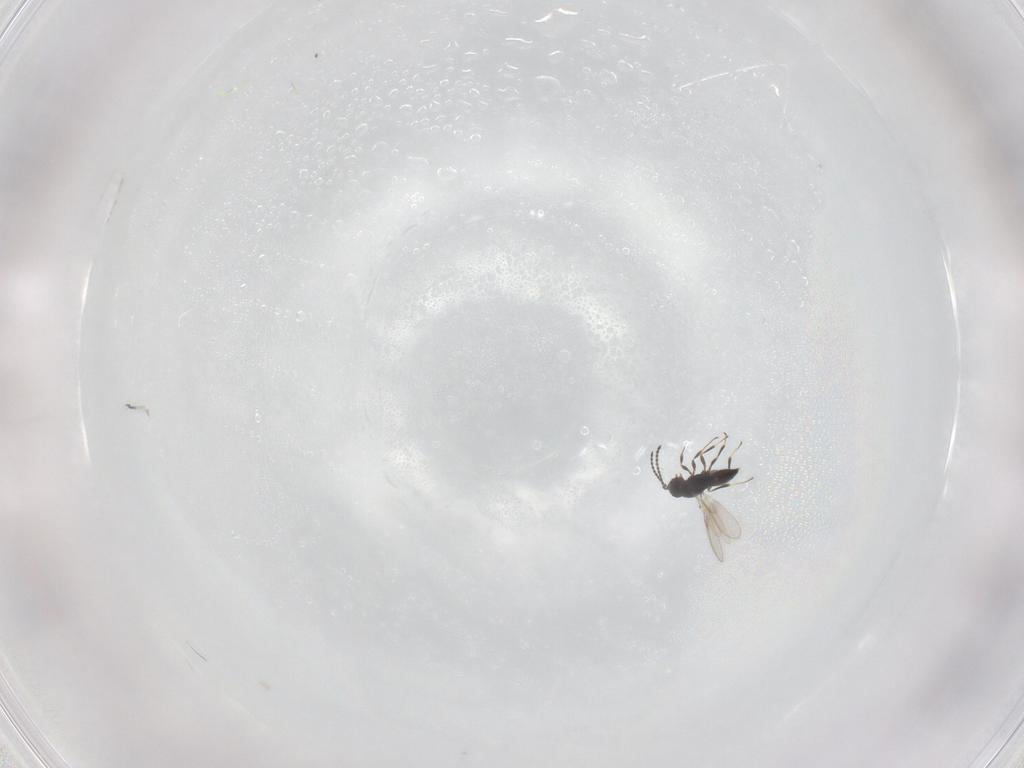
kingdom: Animalia
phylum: Arthropoda
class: Insecta
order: Hymenoptera
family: Scelionidae
